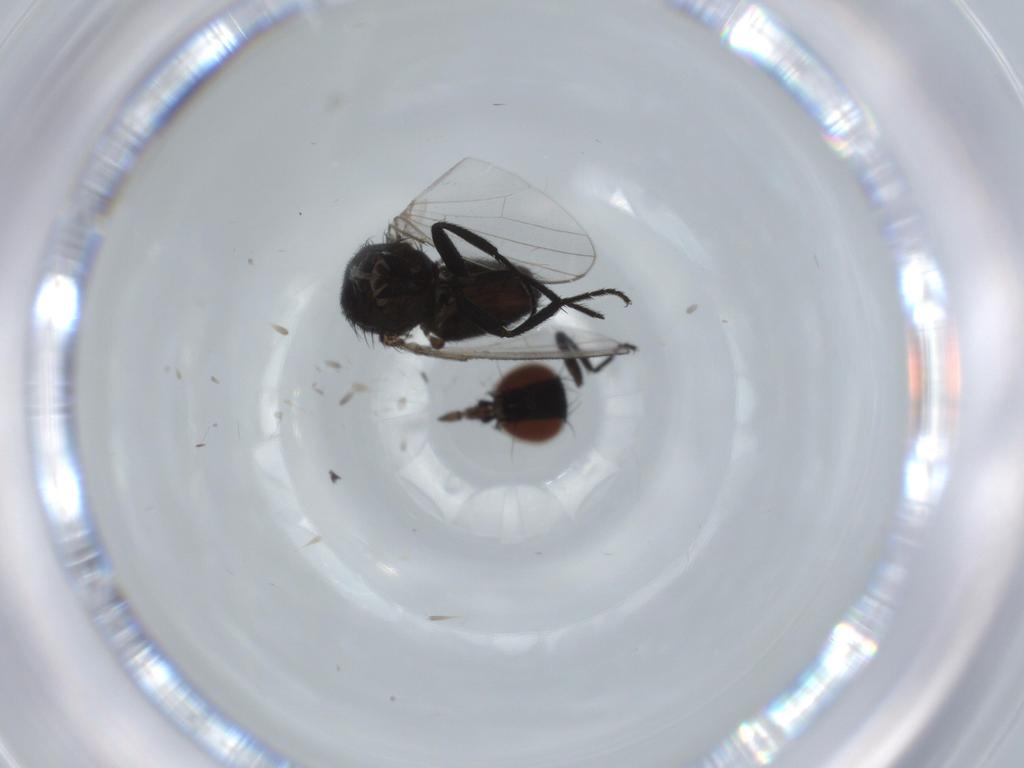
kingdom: Animalia
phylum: Arthropoda
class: Insecta
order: Diptera
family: Milichiidae
